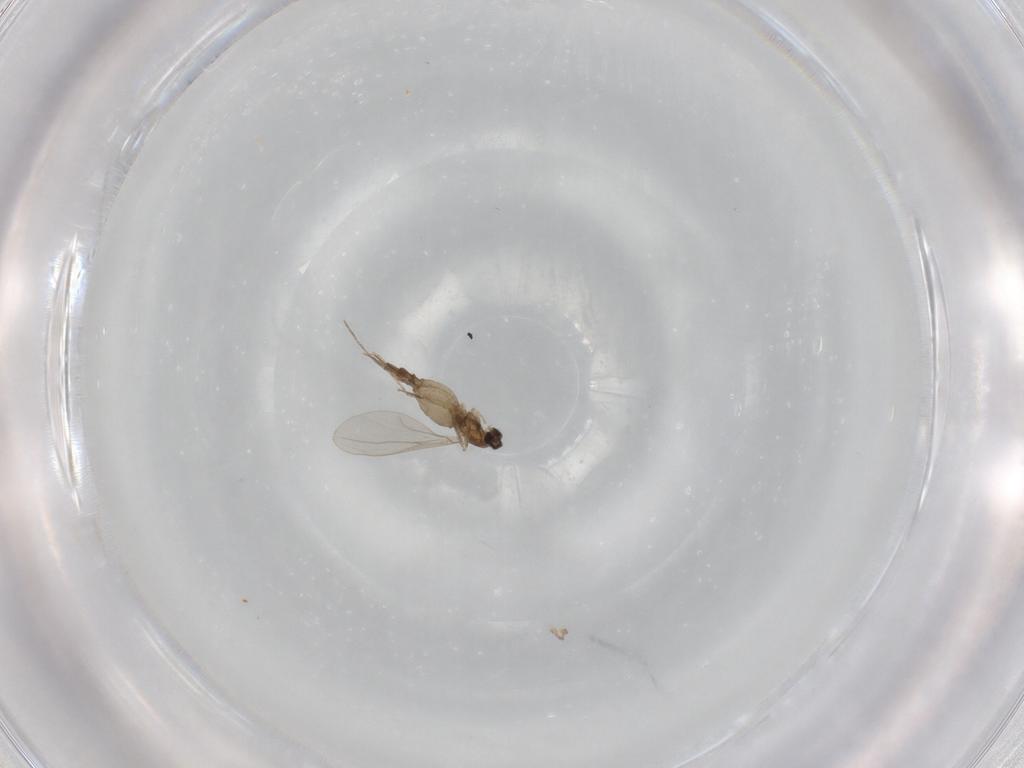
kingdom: Animalia
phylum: Arthropoda
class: Insecta
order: Diptera
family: Cecidomyiidae
